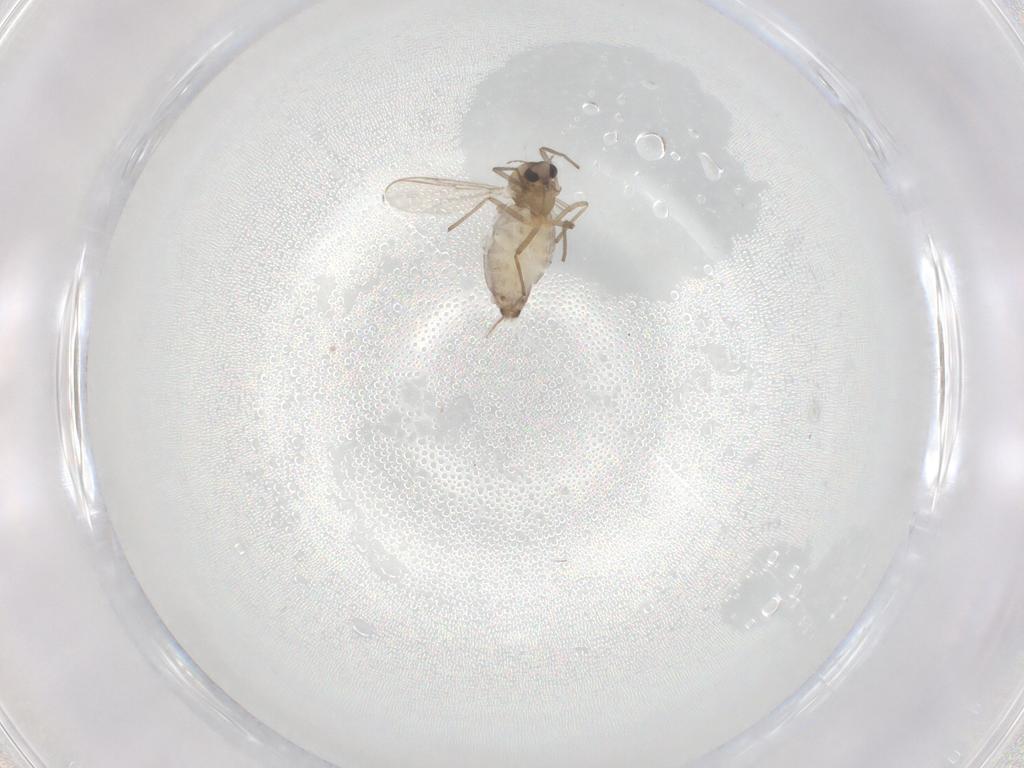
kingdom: Animalia
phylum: Arthropoda
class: Insecta
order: Diptera
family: Chironomidae
